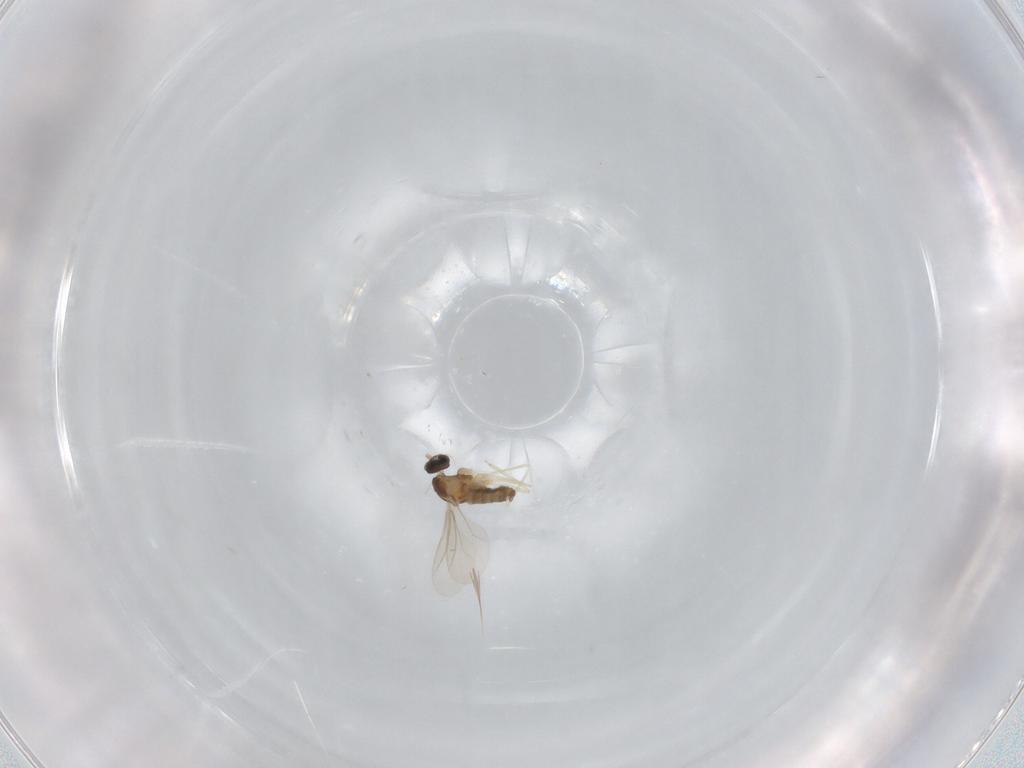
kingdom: Animalia
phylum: Arthropoda
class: Insecta
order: Diptera
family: Cecidomyiidae
